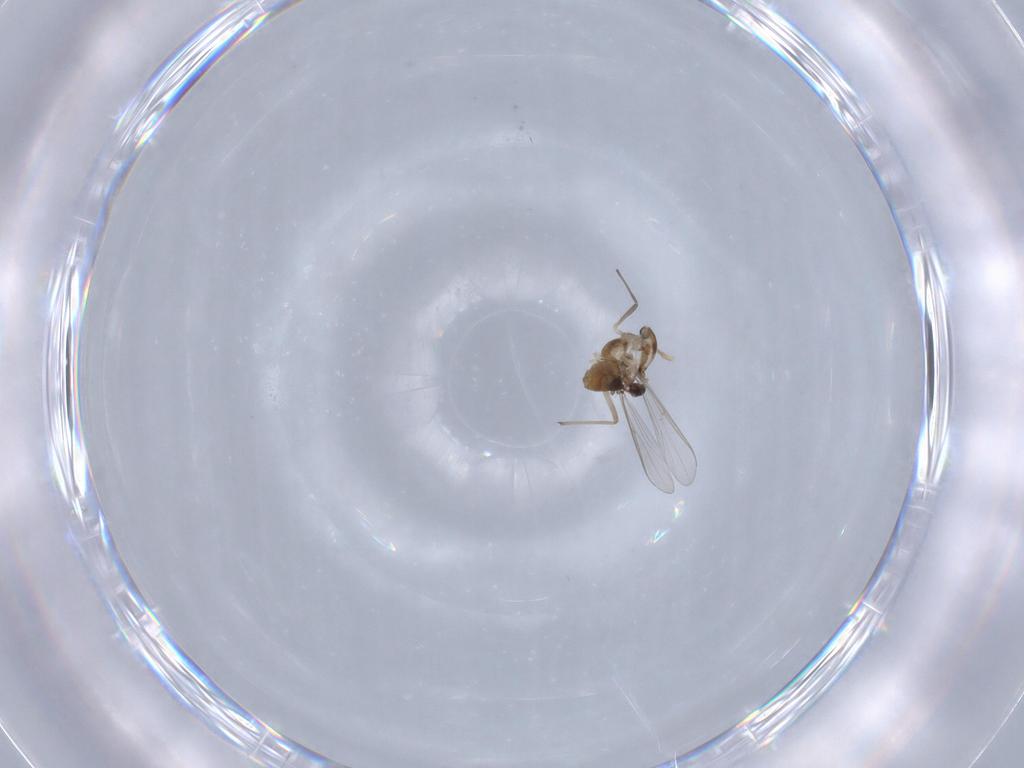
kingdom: Animalia
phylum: Arthropoda
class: Insecta
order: Diptera
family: Chironomidae
